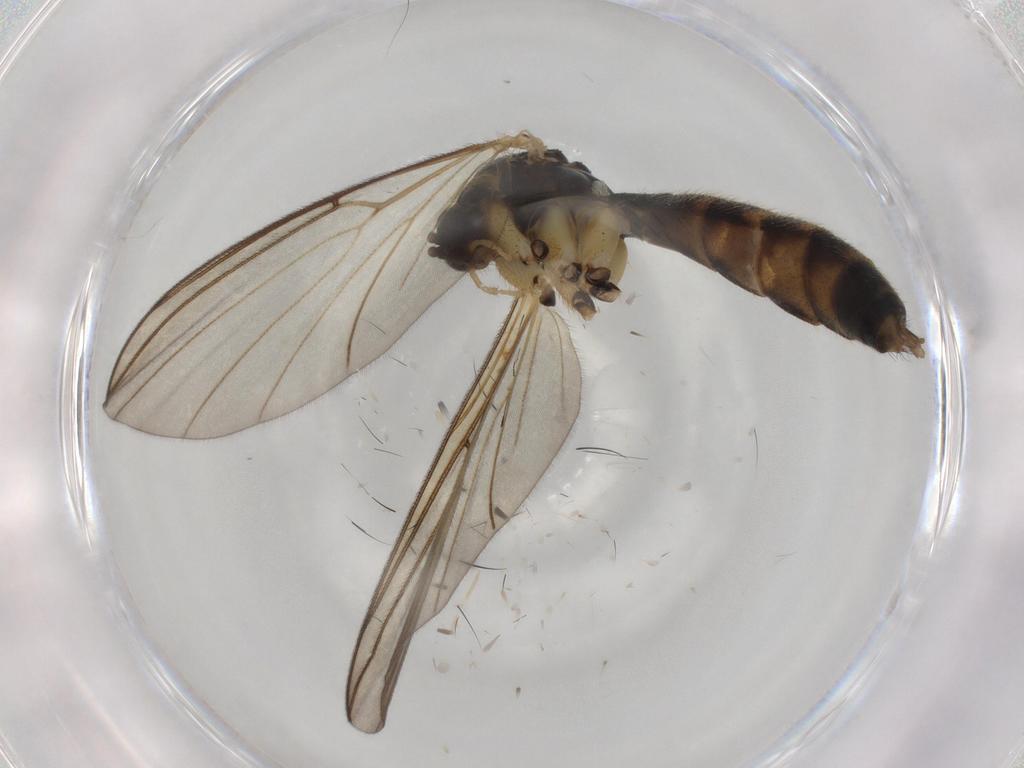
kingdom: Animalia
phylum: Arthropoda
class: Insecta
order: Diptera
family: Mycetophilidae
